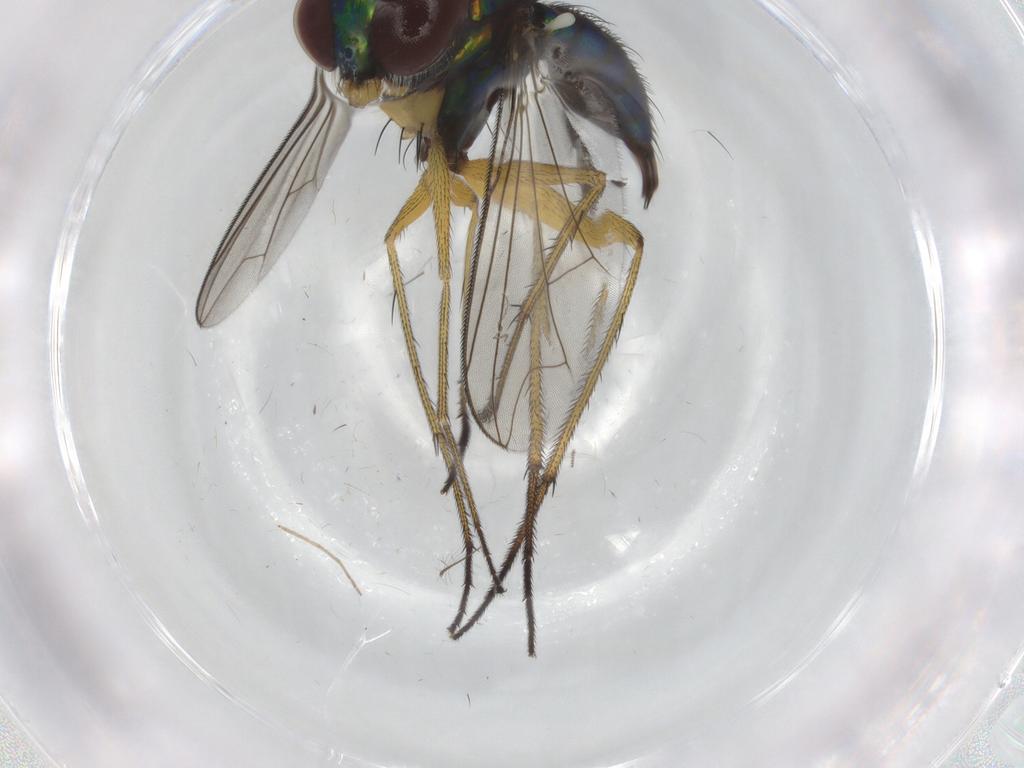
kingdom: Animalia
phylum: Arthropoda
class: Insecta
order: Diptera
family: Dolichopodidae
